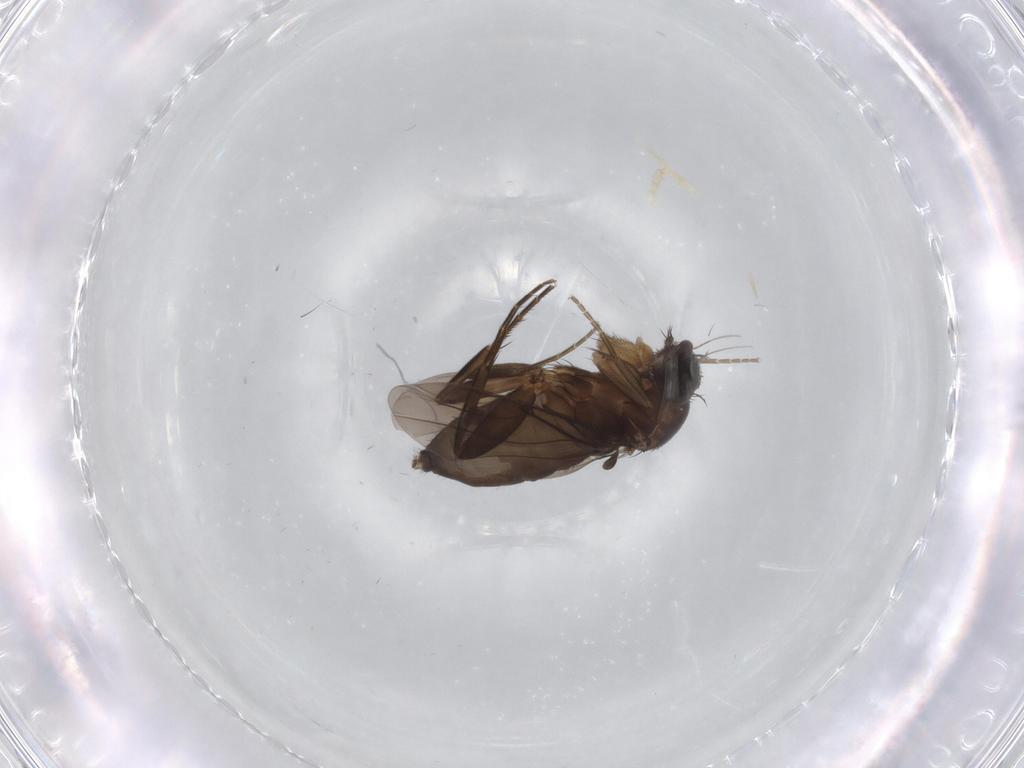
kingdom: Animalia
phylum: Arthropoda
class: Insecta
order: Diptera
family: Phoridae
